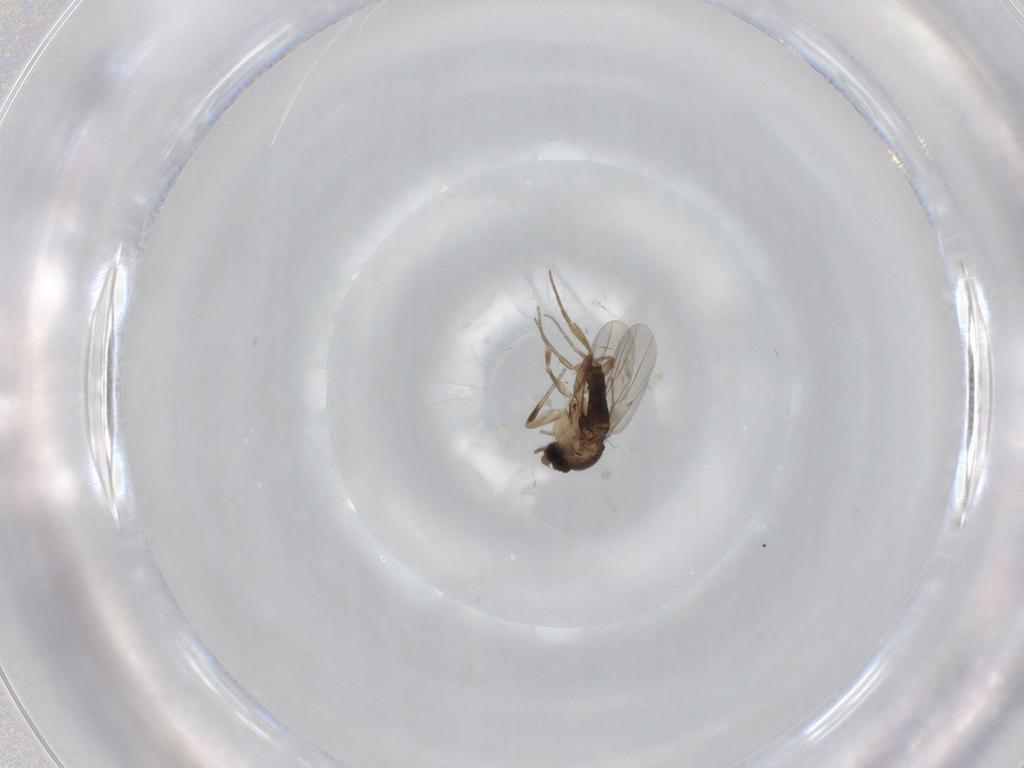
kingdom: Animalia
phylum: Arthropoda
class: Insecta
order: Diptera
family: Phoridae
